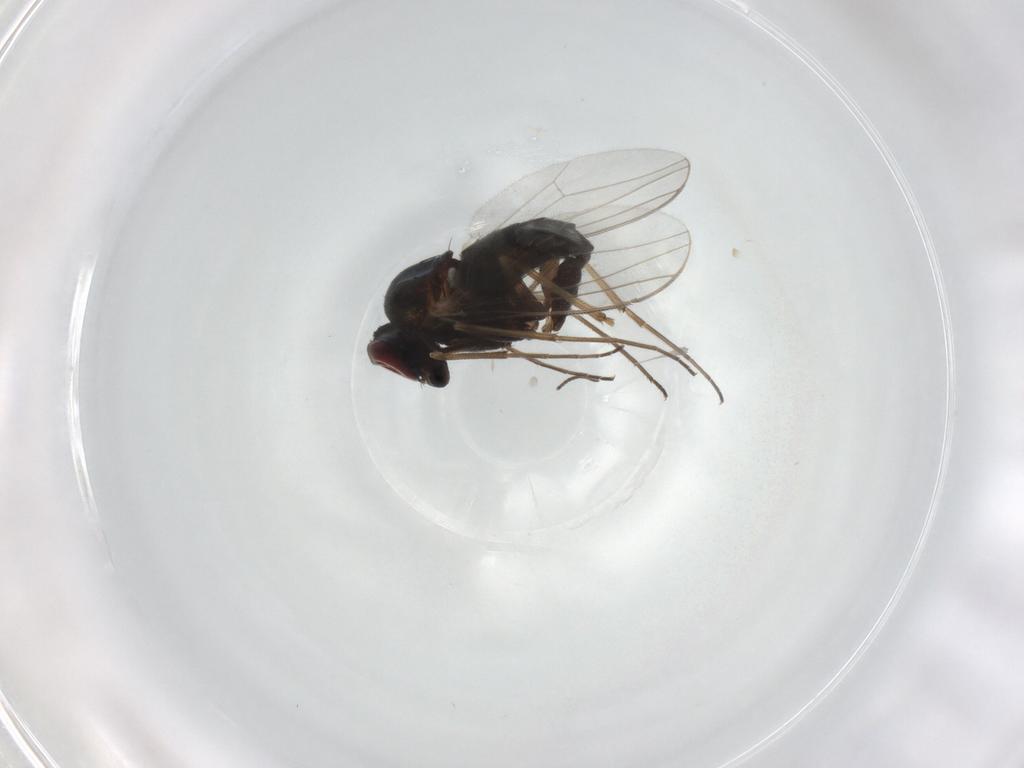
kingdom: Animalia
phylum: Arthropoda
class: Insecta
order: Diptera
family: Dolichopodidae
